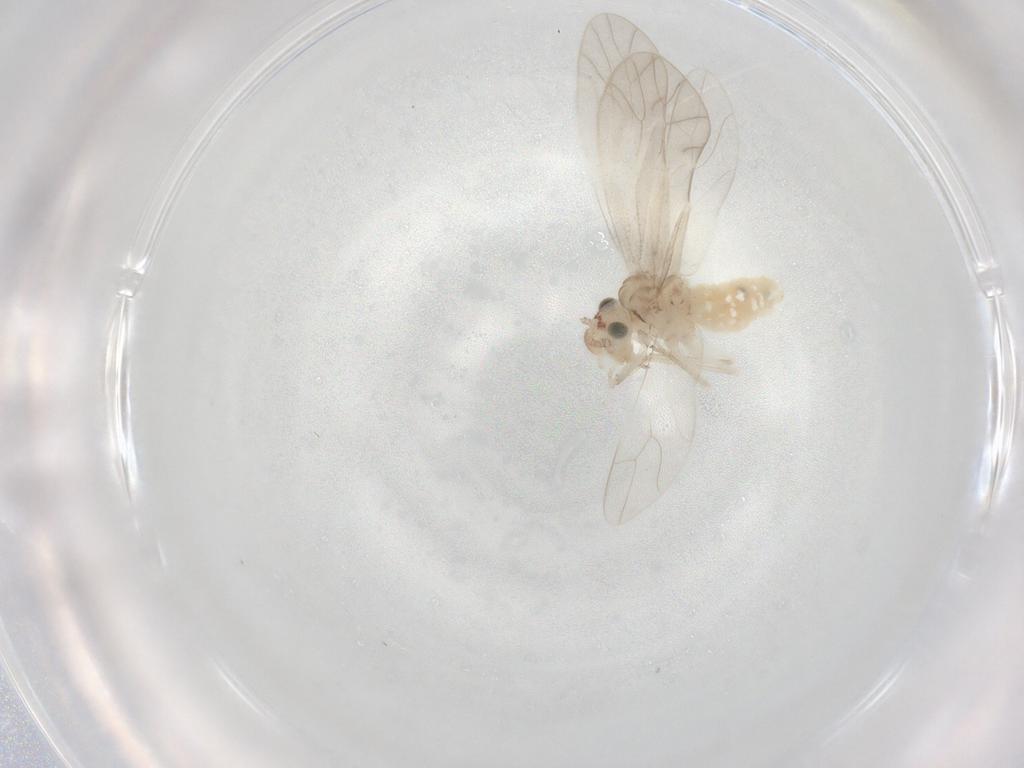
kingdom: Animalia
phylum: Arthropoda
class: Insecta
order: Psocodea
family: Caeciliusidae
